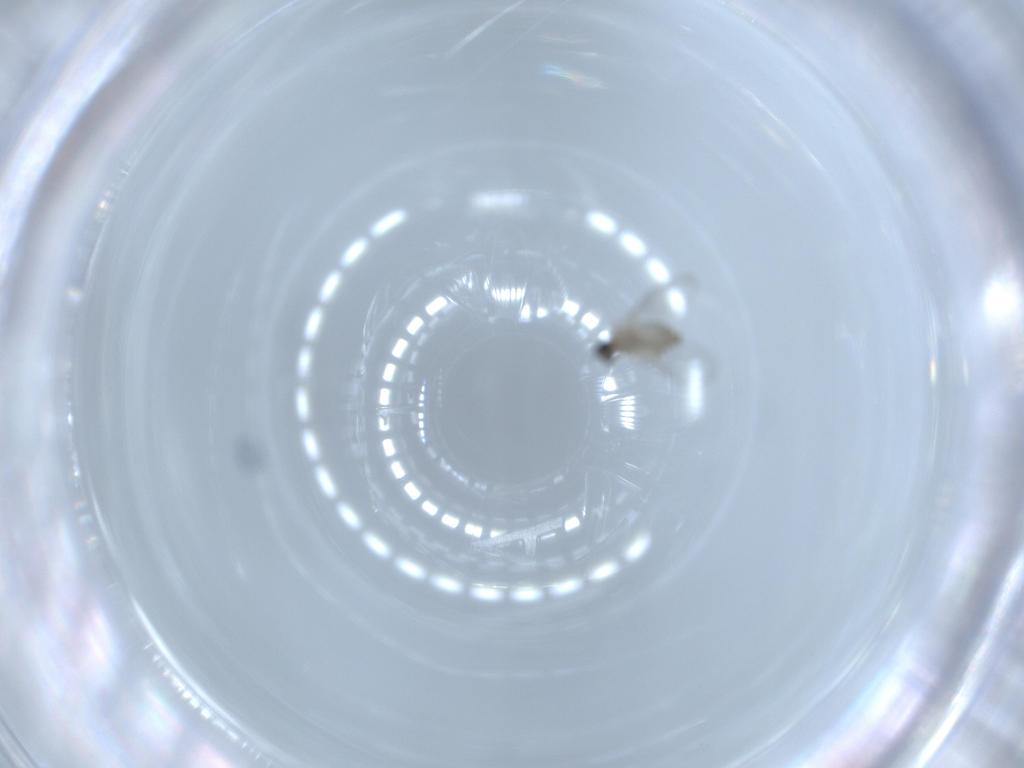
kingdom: Animalia
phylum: Arthropoda
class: Insecta
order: Diptera
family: Cecidomyiidae
